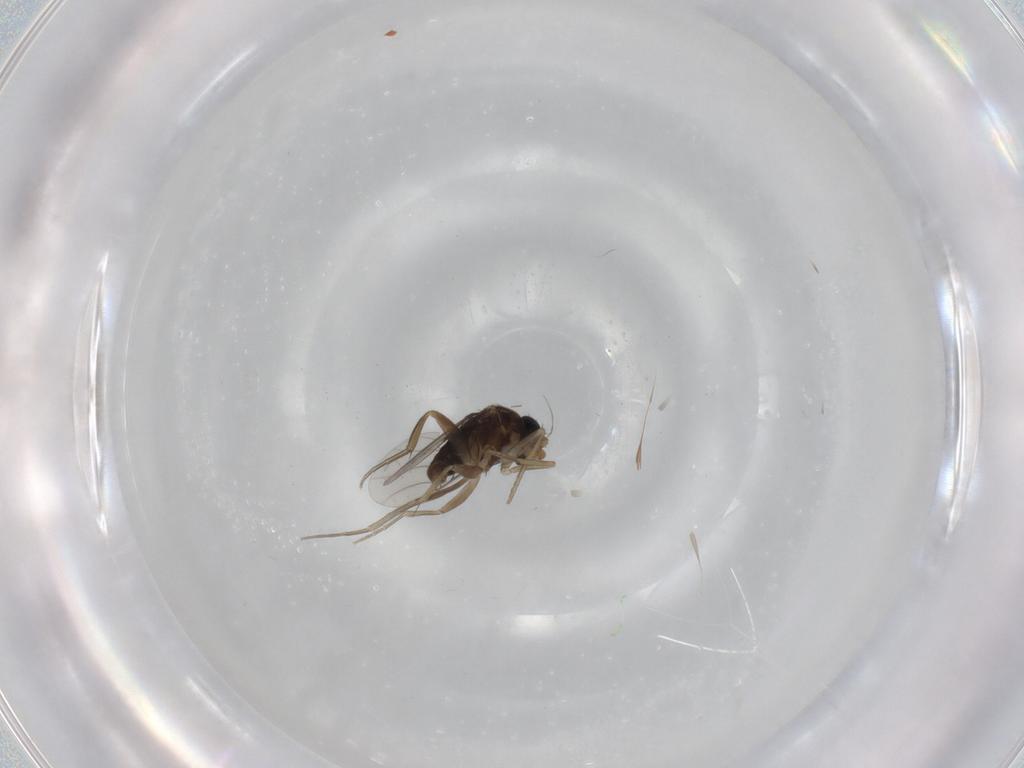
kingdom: Animalia
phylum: Arthropoda
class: Insecta
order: Diptera
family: Phoridae
